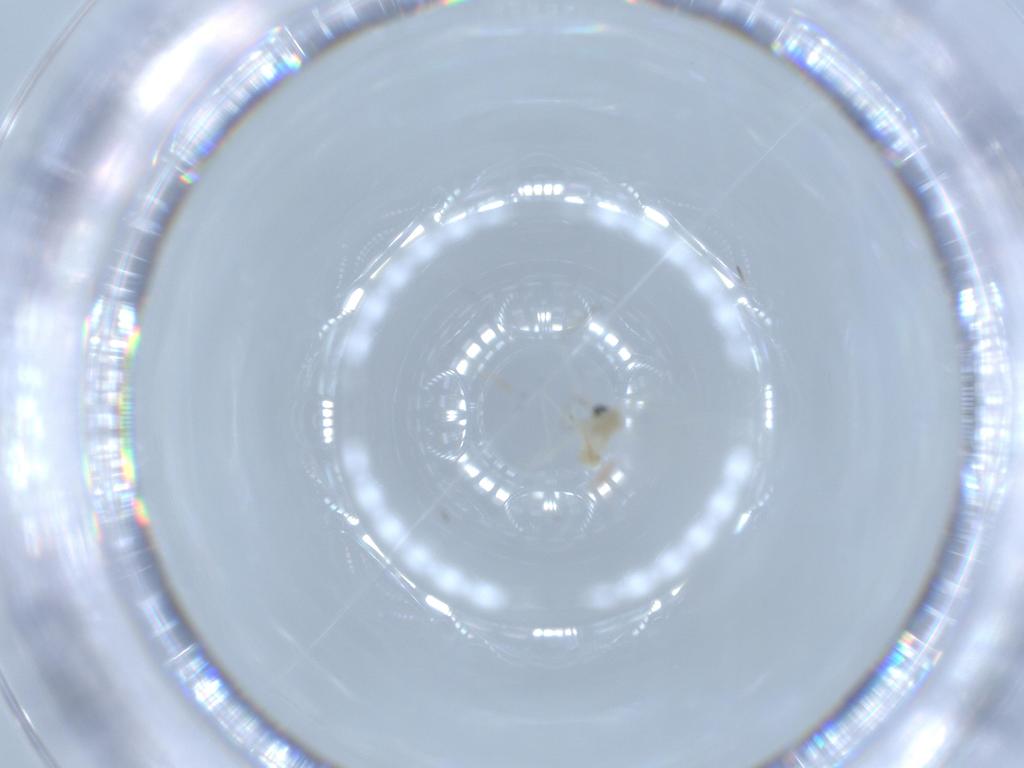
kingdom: Animalia
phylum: Arthropoda
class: Insecta
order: Diptera
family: Cecidomyiidae
